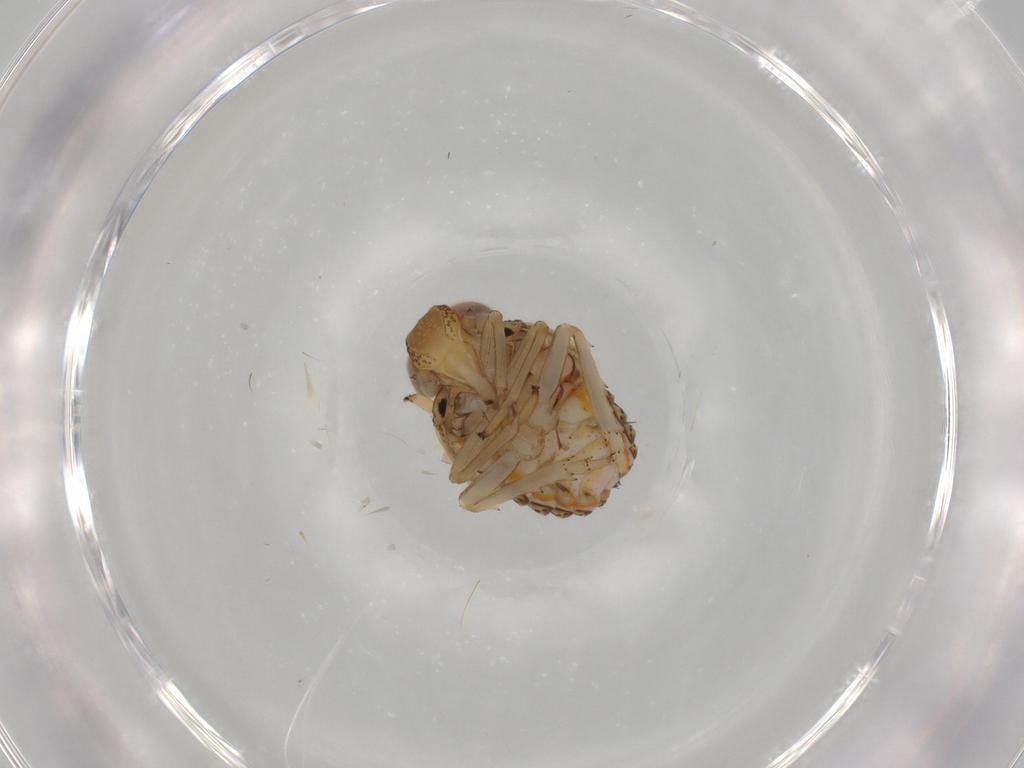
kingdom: Animalia
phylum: Arthropoda
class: Insecta
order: Hemiptera
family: Issidae
